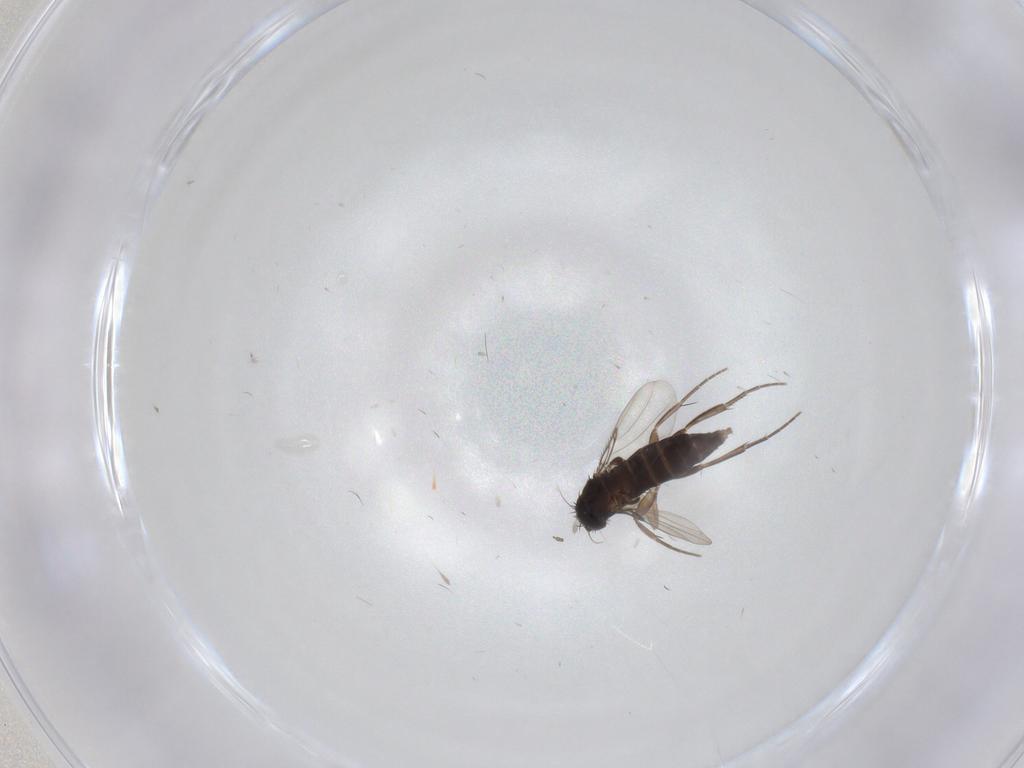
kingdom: Animalia
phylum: Arthropoda
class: Insecta
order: Diptera
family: Phoridae
